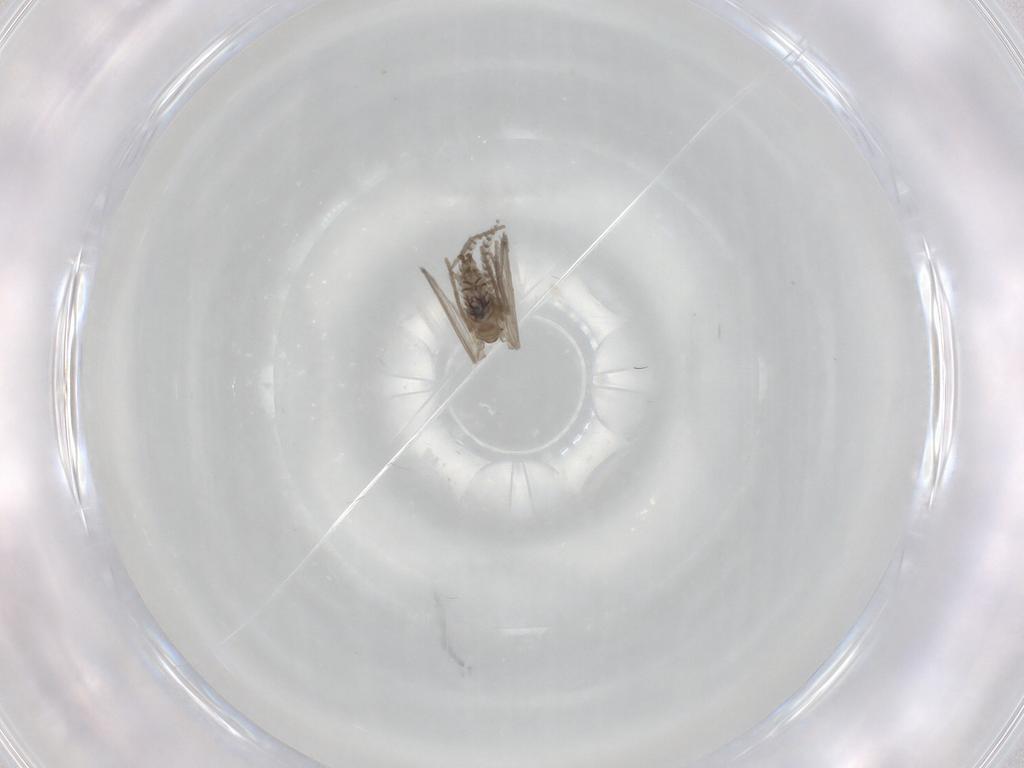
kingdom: Animalia
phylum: Arthropoda
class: Insecta
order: Diptera
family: Psychodidae
